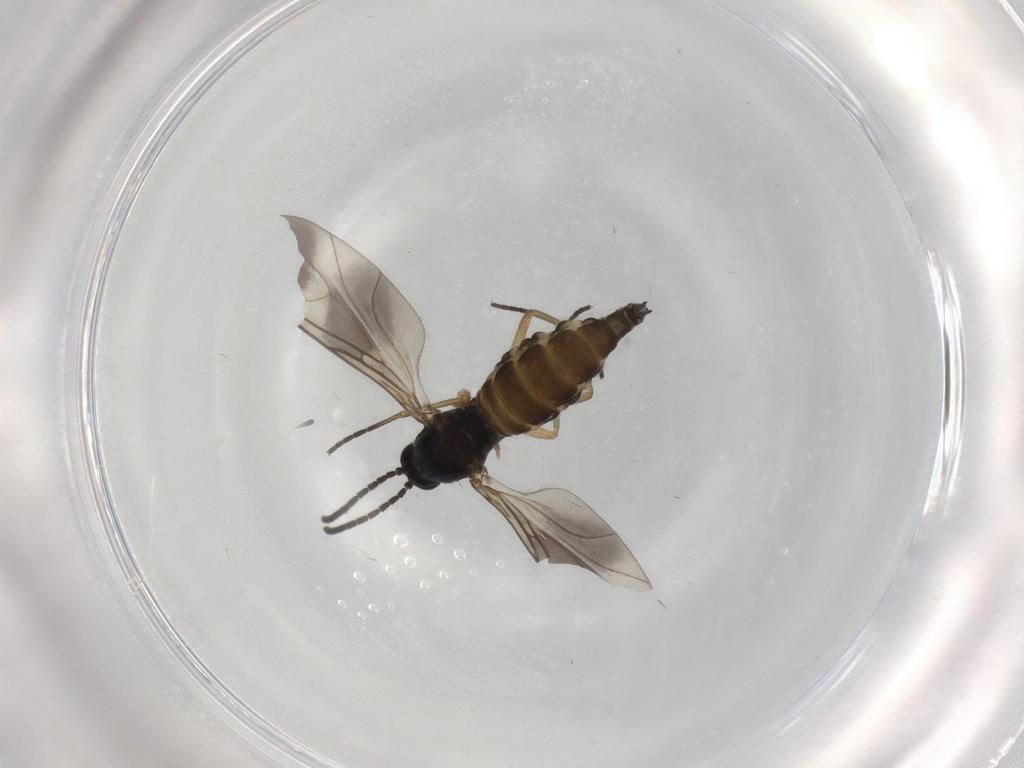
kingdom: Animalia
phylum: Arthropoda
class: Insecta
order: Diptera
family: Sciaridae
